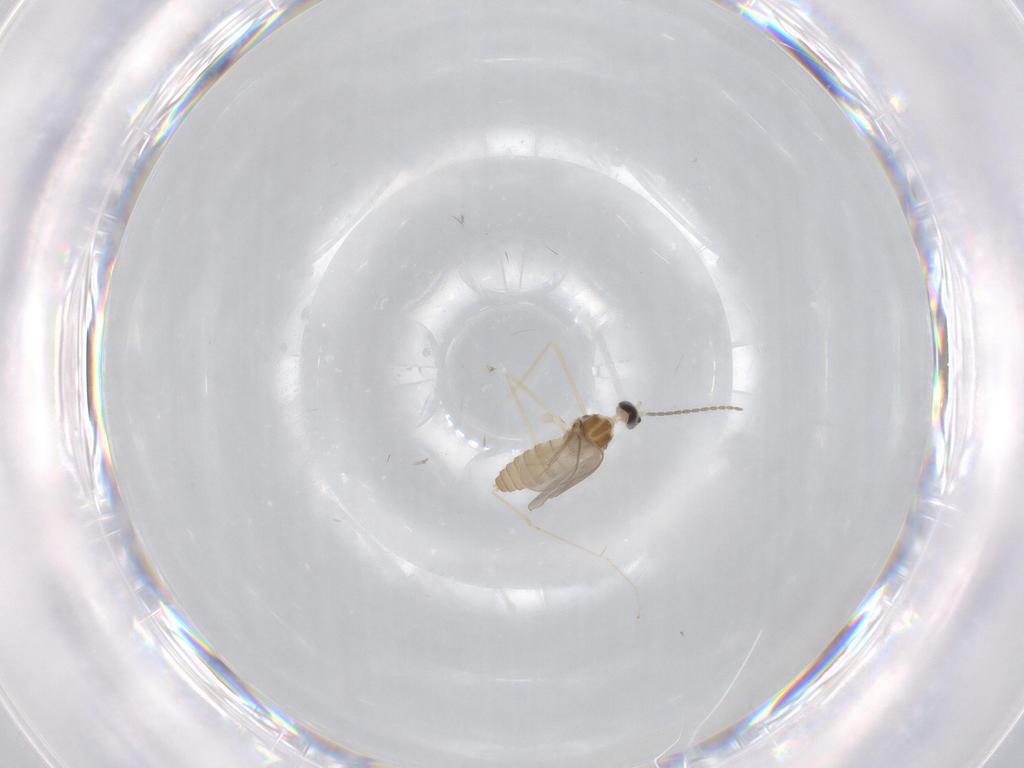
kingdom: Animalia
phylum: Arthropoda
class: Insecta
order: Diptera
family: Cecidomyiidae
